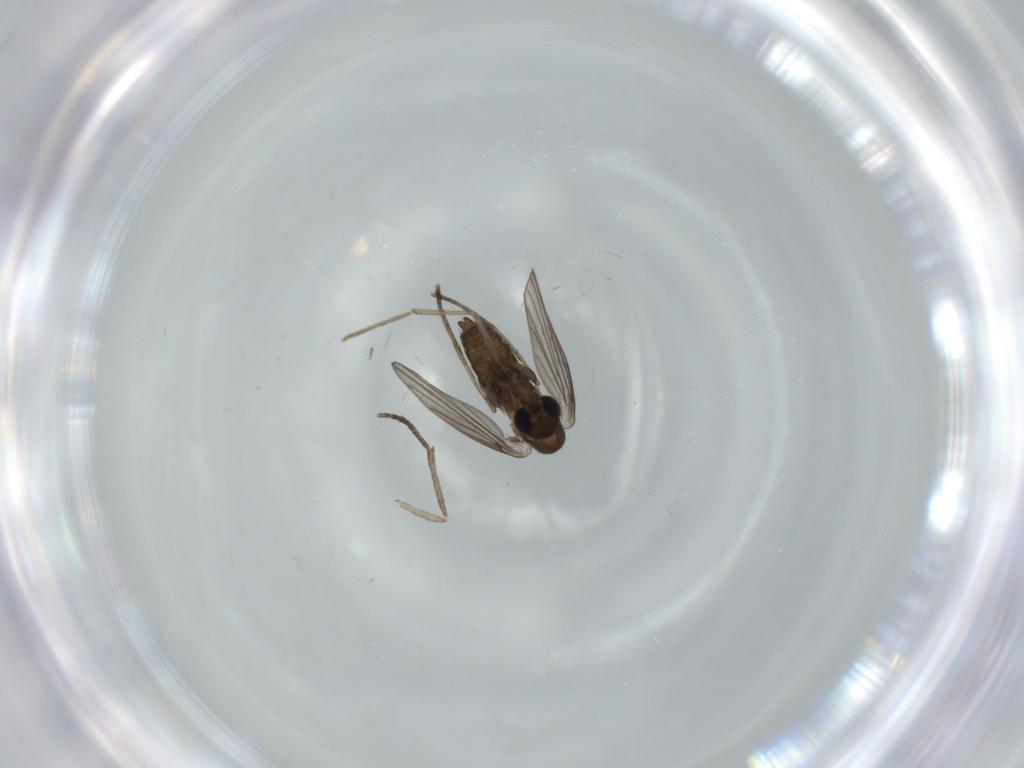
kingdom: Animalia
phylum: Arthropoda
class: Insecta
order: Diptera
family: Psychodidae
